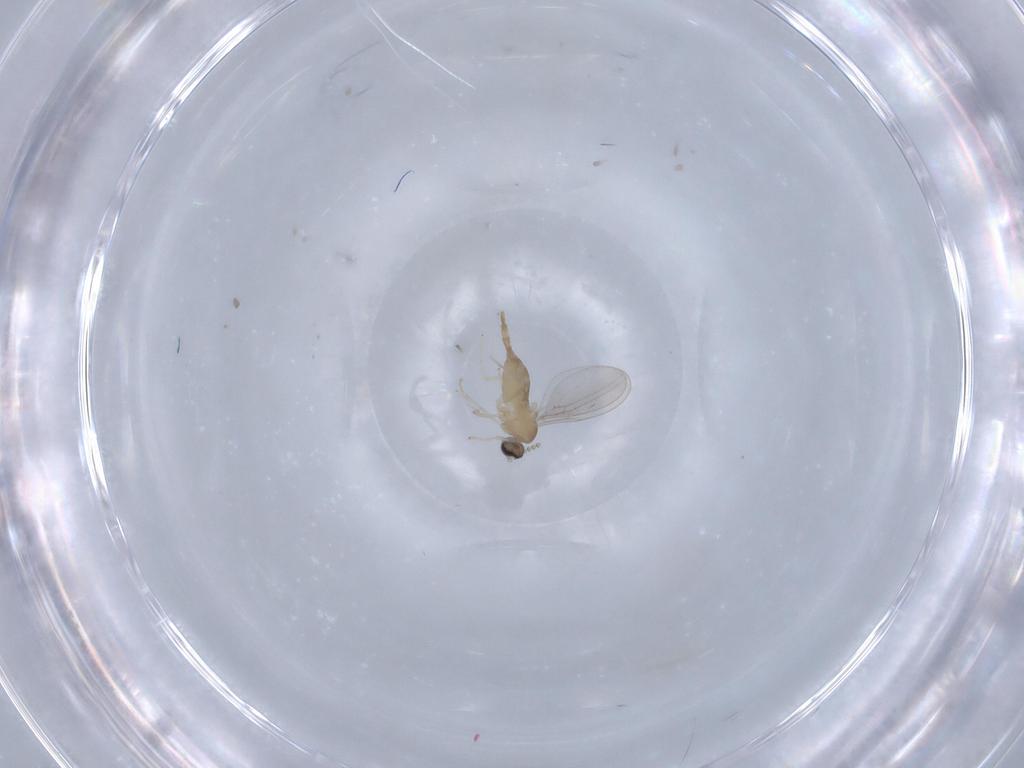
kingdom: Animalia
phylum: Arthropoda
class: Insecta
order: Diptera
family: Cecidomyiidae
